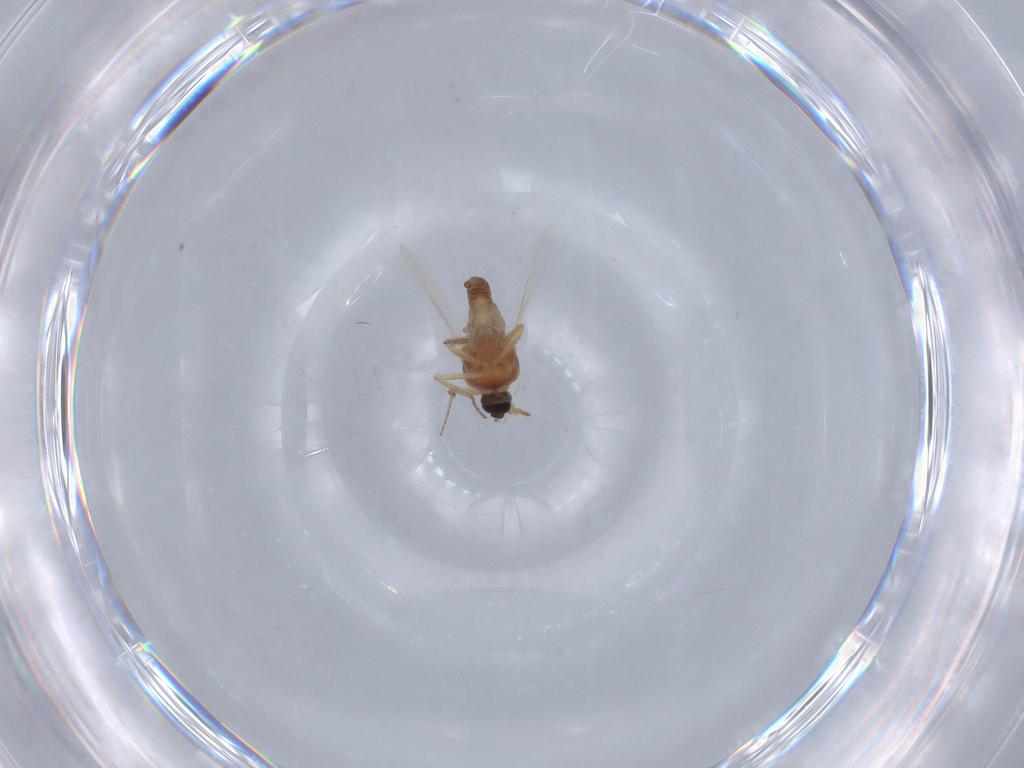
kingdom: Animalia
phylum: Arthropoda
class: Insecta
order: Diptera
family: Ceratopogonidae
